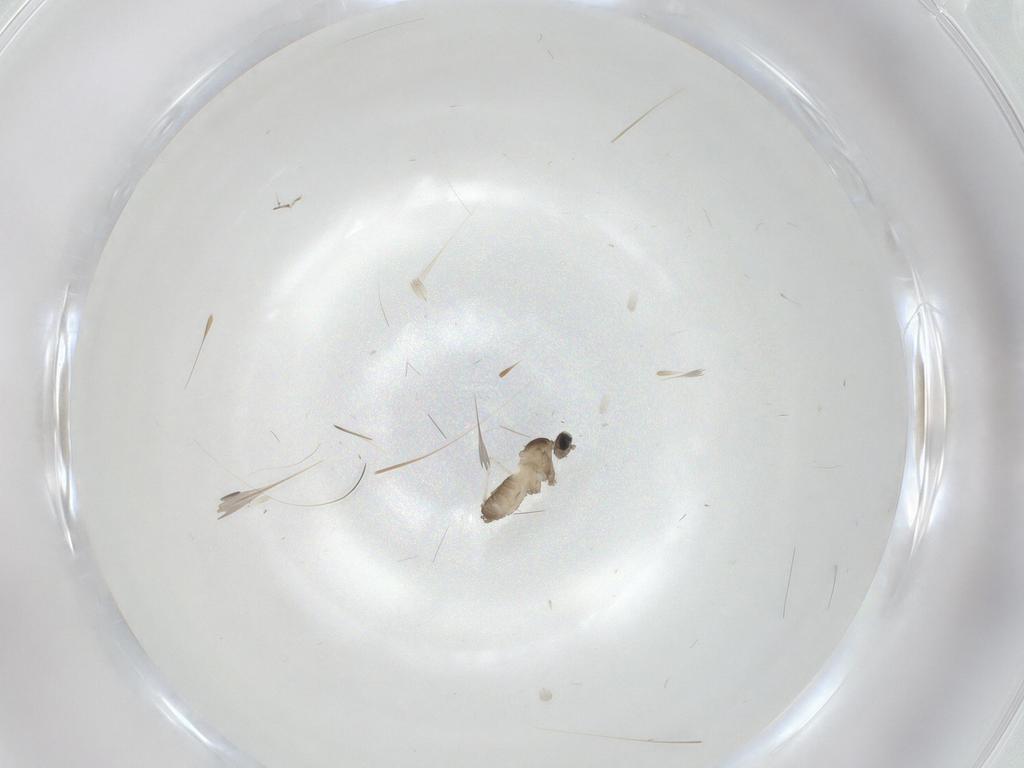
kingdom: Animalia
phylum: Arthropoda
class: Insecta
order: Diptera
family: Cecidomyiidae
